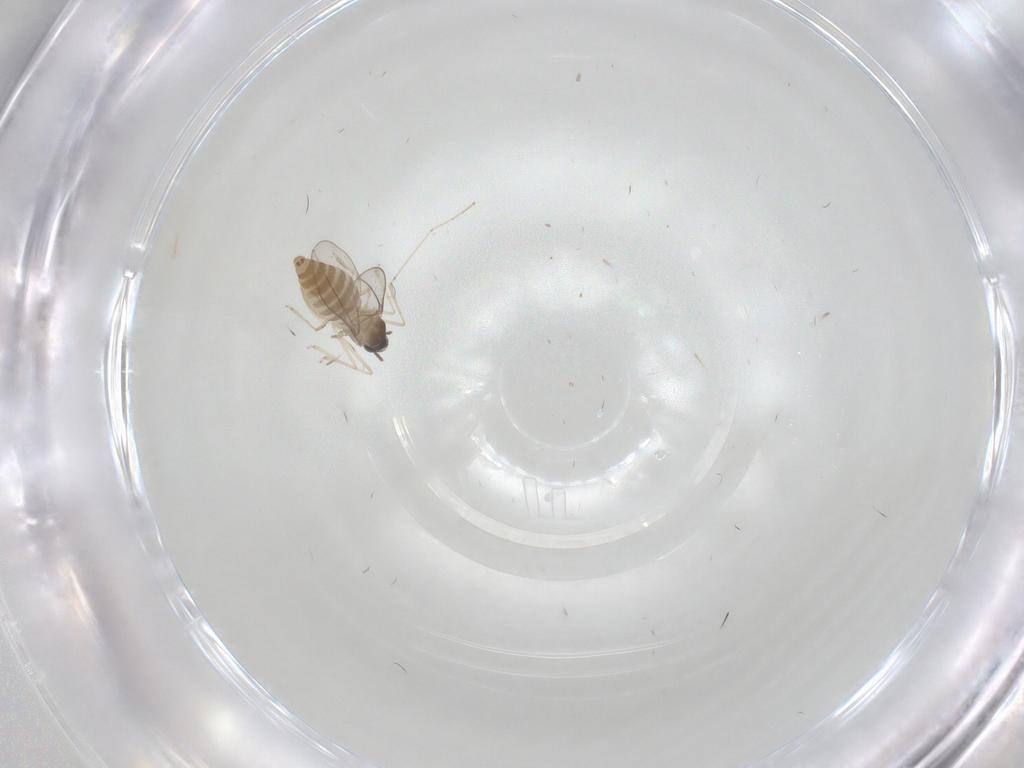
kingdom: Animalia
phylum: Arthropoda
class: Insecta
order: Diptera
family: Cecidomyiidae
